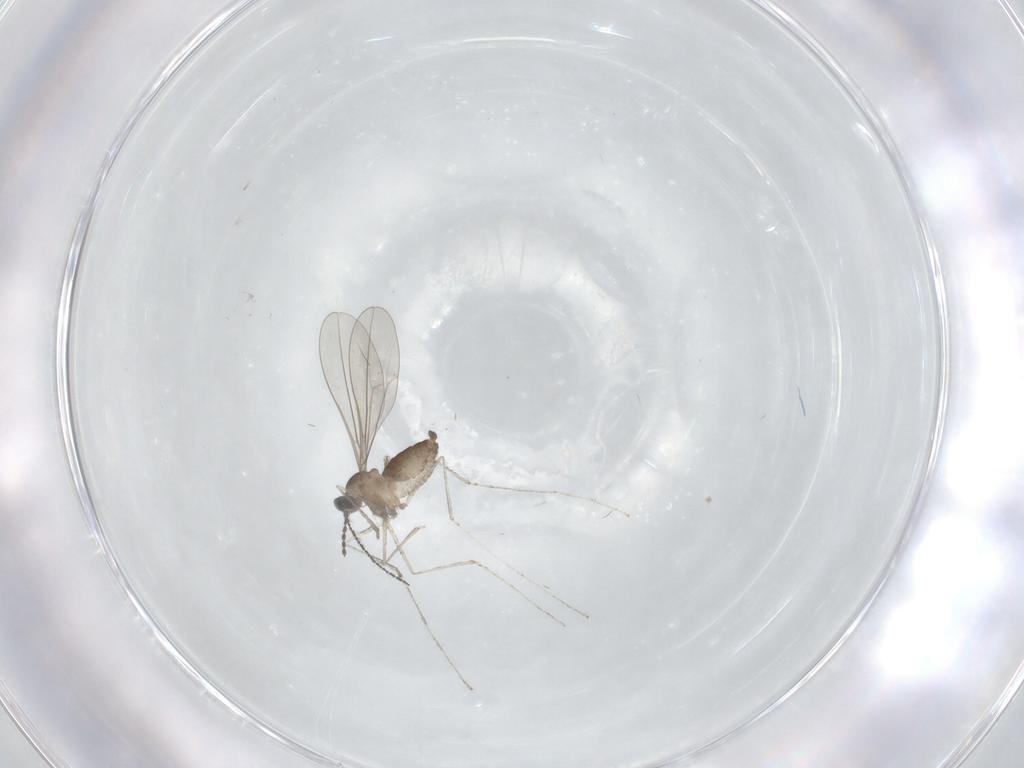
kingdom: Animalia
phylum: Arthropoda
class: Insecta
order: Diptera
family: Cecidomyiidae
